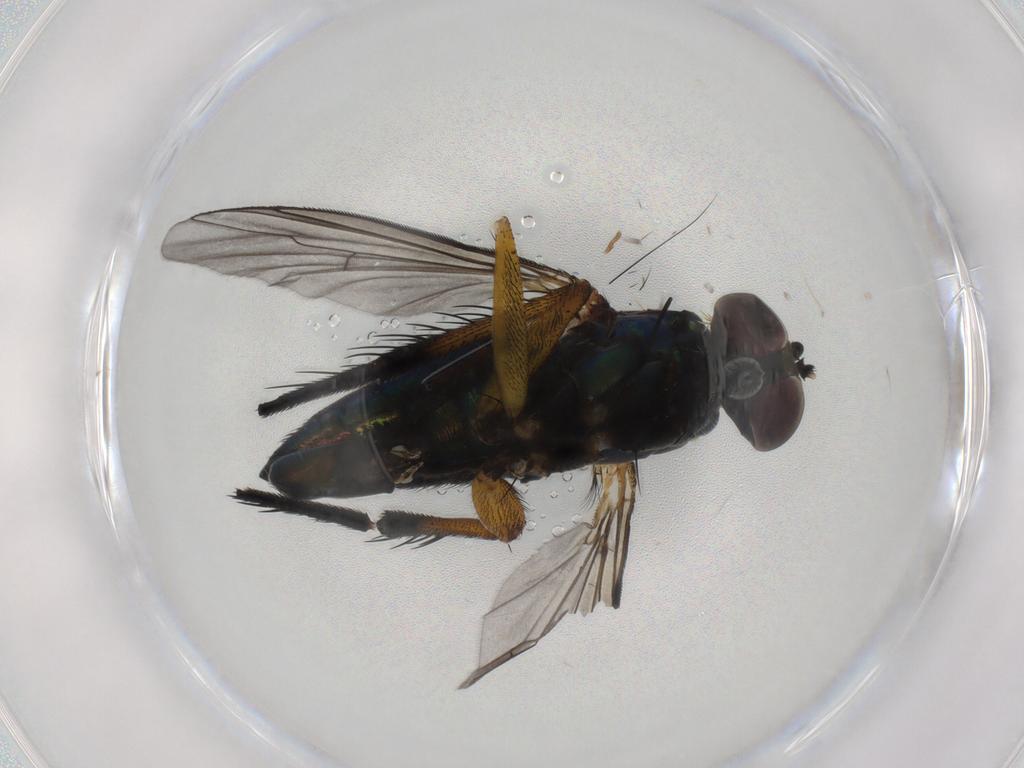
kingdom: Animalia
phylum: Arthropoda
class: Insecta
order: Diptera
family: Dolichopodidae
